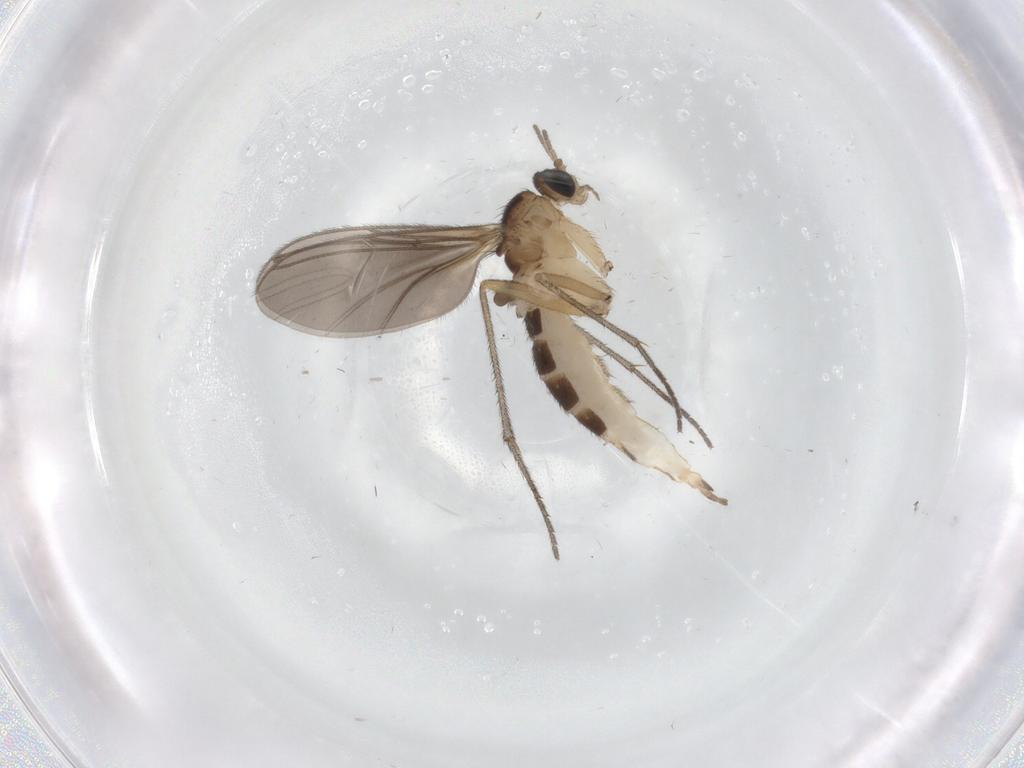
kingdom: Animalia
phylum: Arthropoda
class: Insecta
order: Diptera
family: Sciaridae
